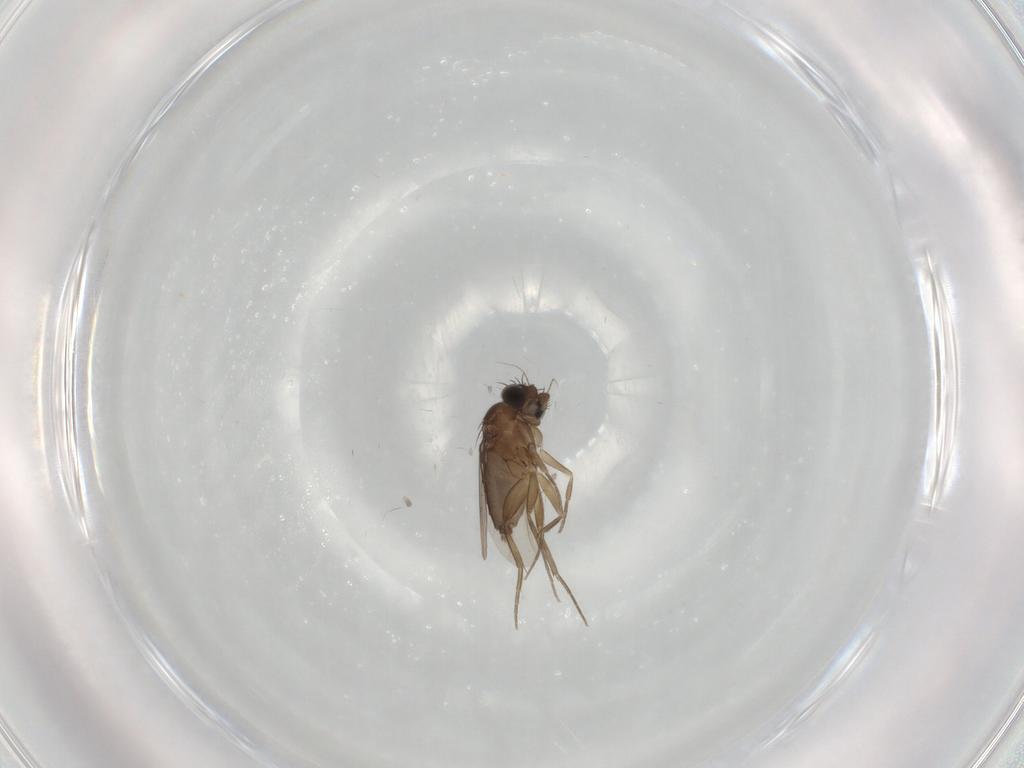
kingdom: Animalia
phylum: Arthropoda
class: Insecta
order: Diptera
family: Phoridae
